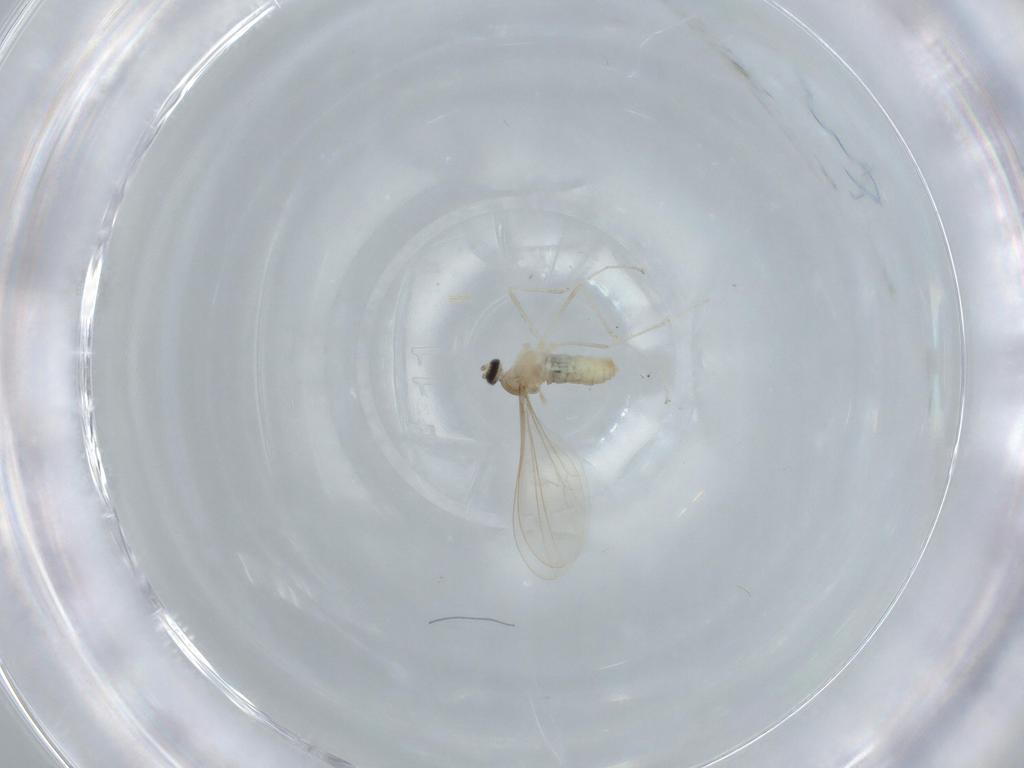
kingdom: Animalia
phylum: Arthropoda
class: Insecta
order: Diptera
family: Cecidomyiidae
